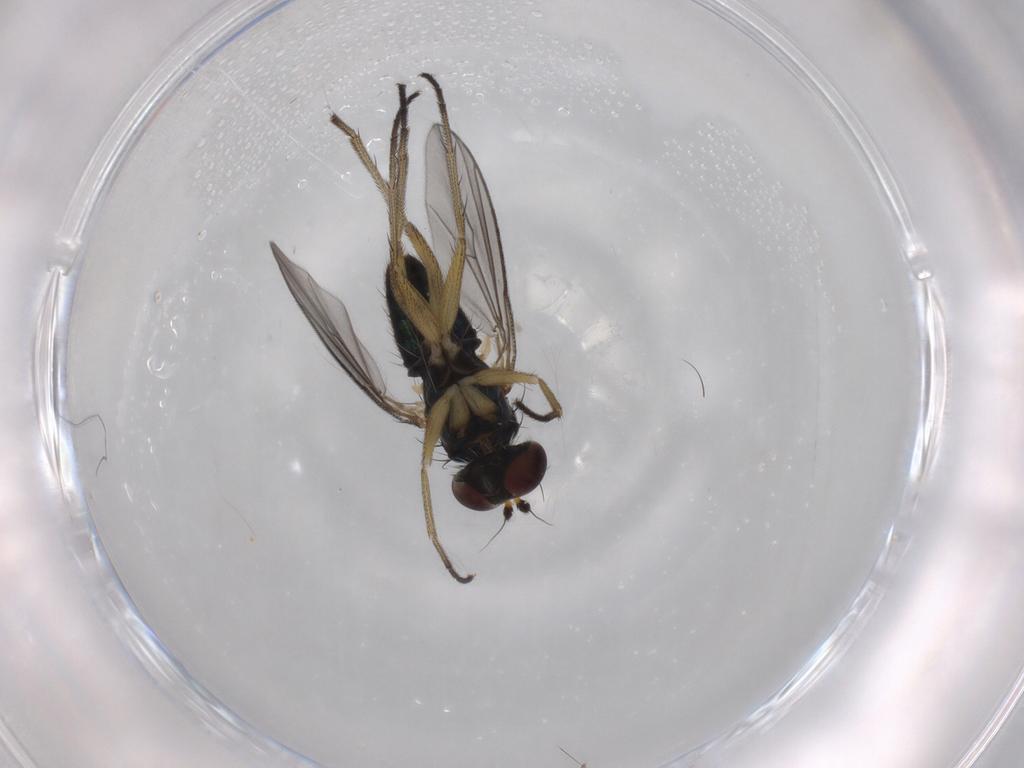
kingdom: Animalia
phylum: Arthropoda
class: Insecta
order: Diptera
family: Dolichopodidae
